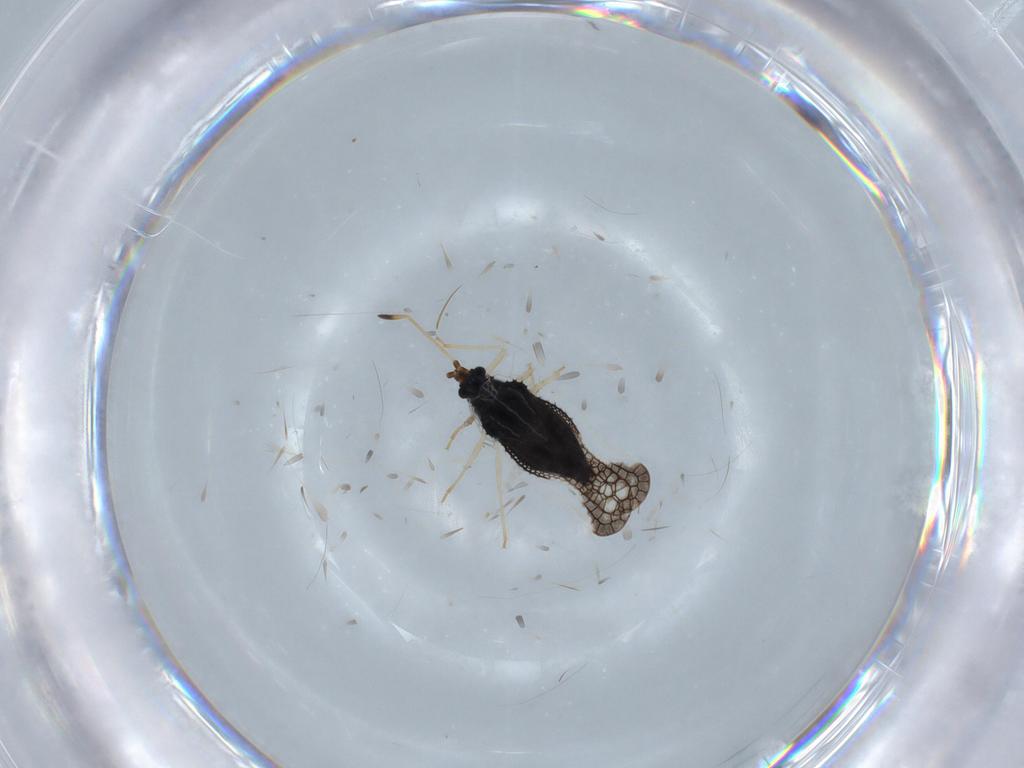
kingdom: Animalia
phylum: Arthropoda
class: Insecta
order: Hemiptera
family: Tingidae
